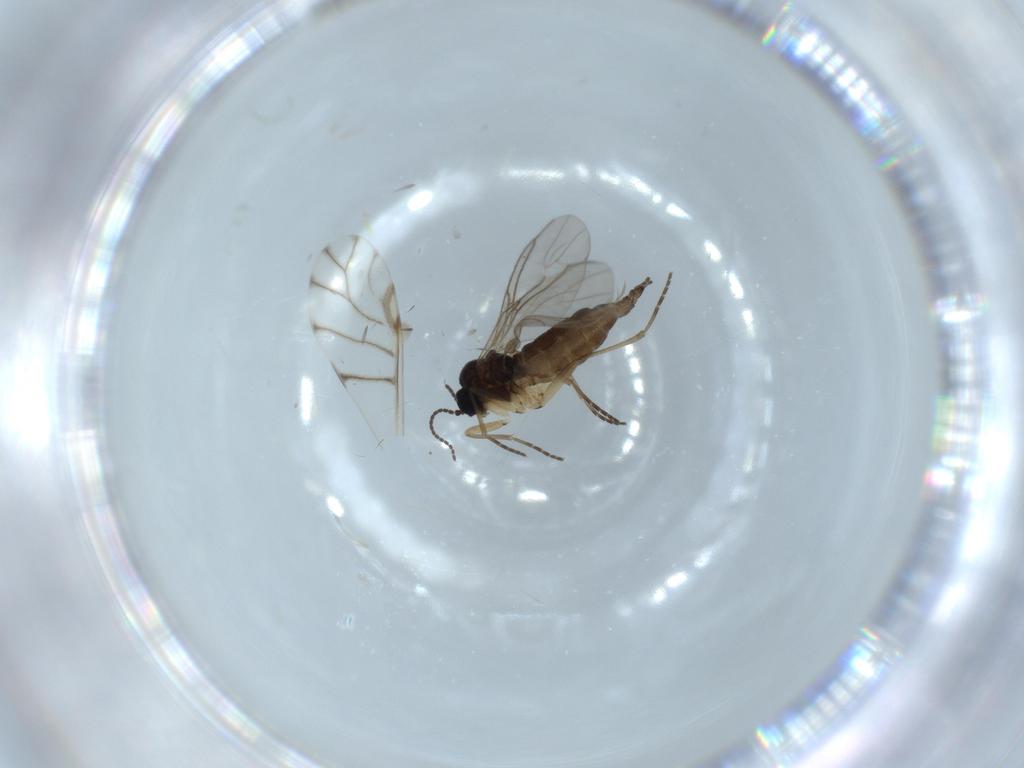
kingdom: Animalia
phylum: Arthropoda
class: Insecta
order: Diptera
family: Sciaridae
